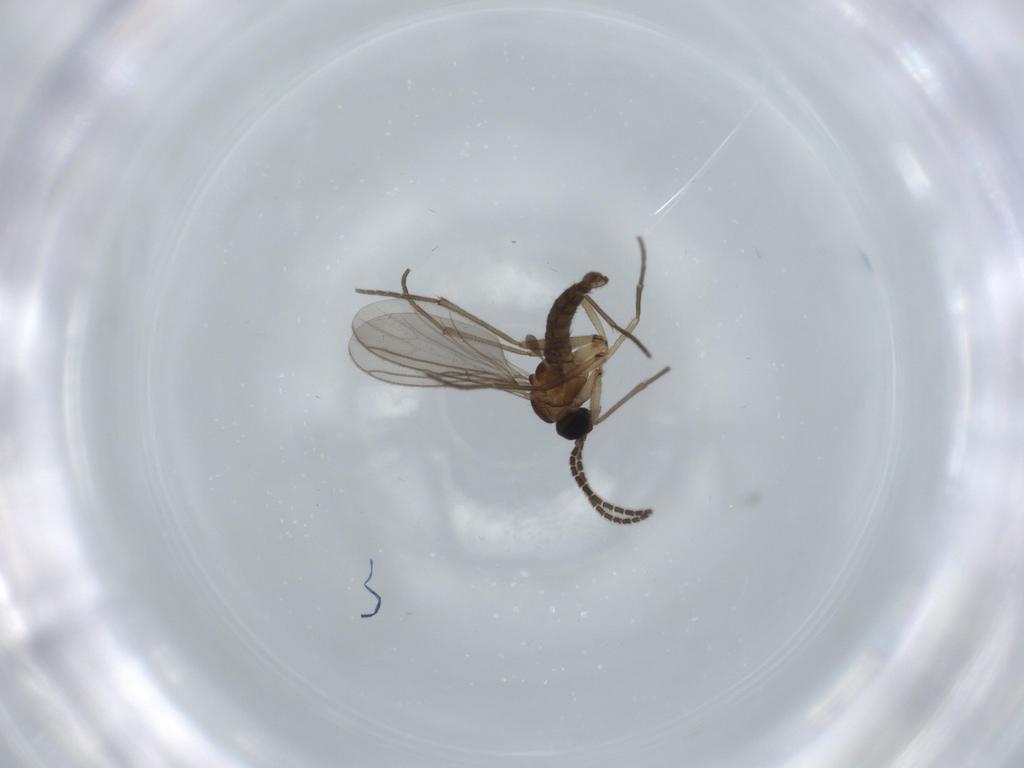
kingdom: Animalia
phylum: Arthropoda
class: Insecta
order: Diptera
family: Sciaridae
